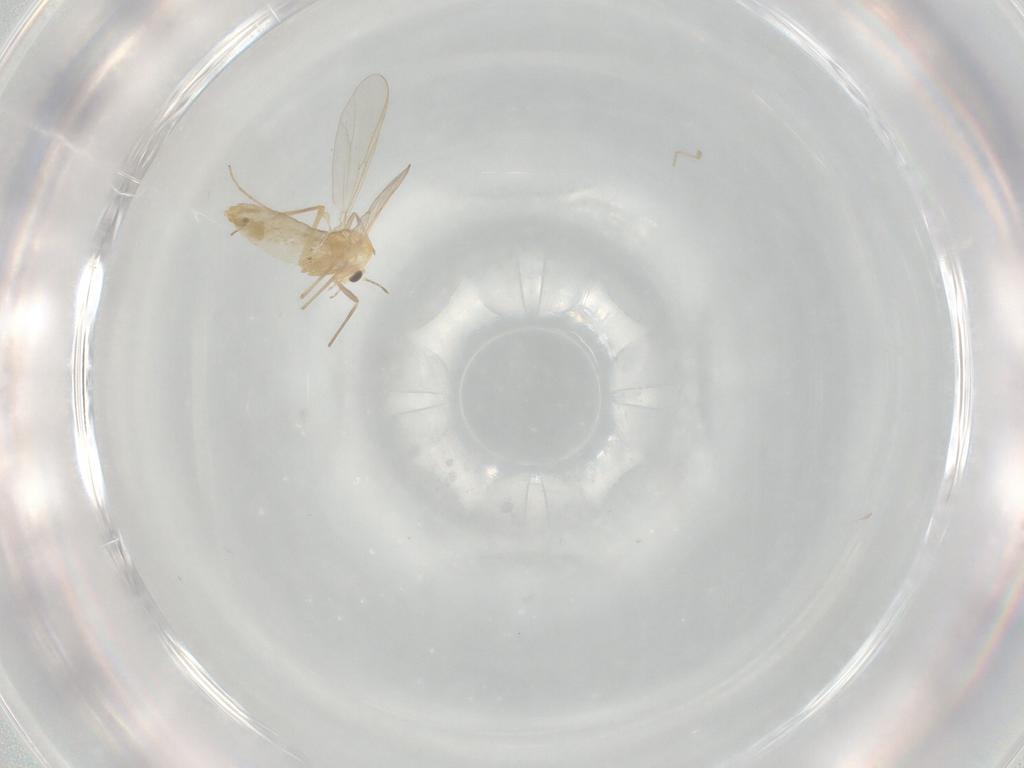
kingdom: Animalia
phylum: Arthropoda
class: Insecta
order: Diptera
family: Chironomidae
